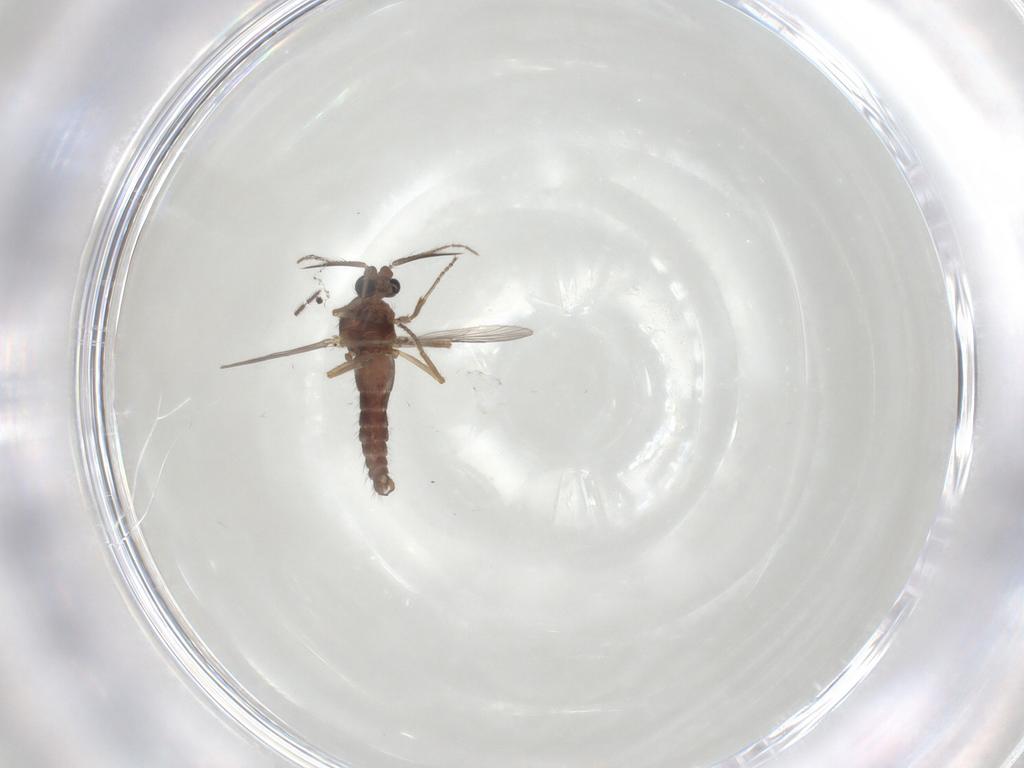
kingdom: Animalia
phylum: Arthropoda
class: Insecta
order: Diptera
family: Ceratopogonidae
